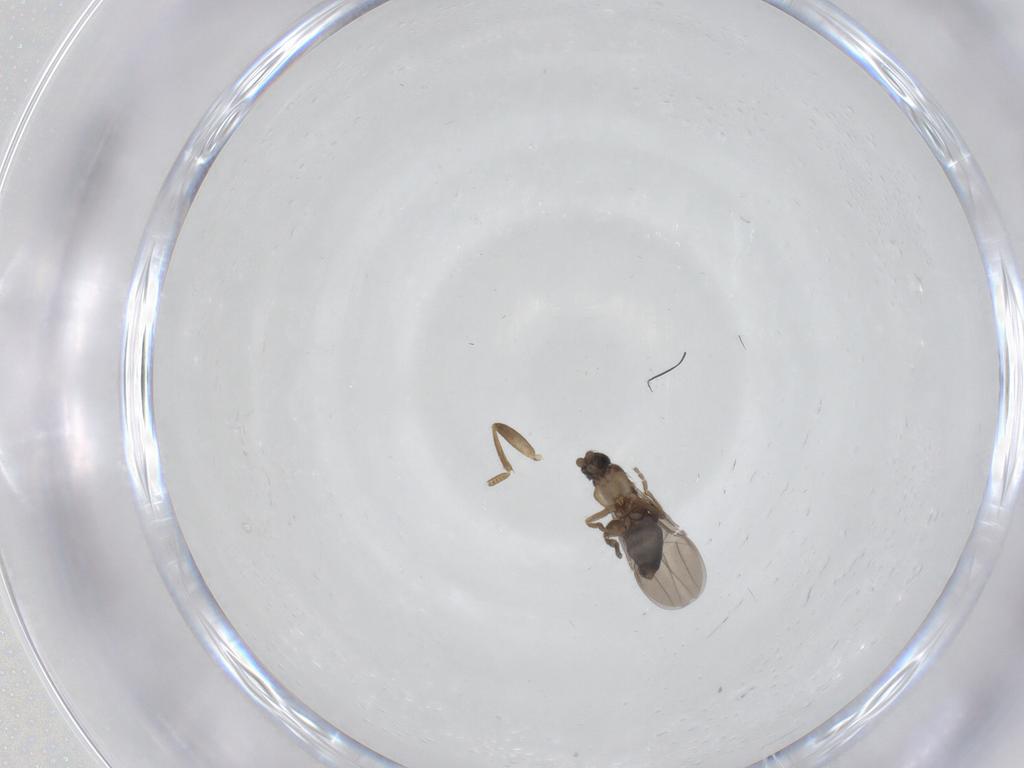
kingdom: Animalia
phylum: Arthropoda
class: Insecta
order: Diptera
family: Phoridae
